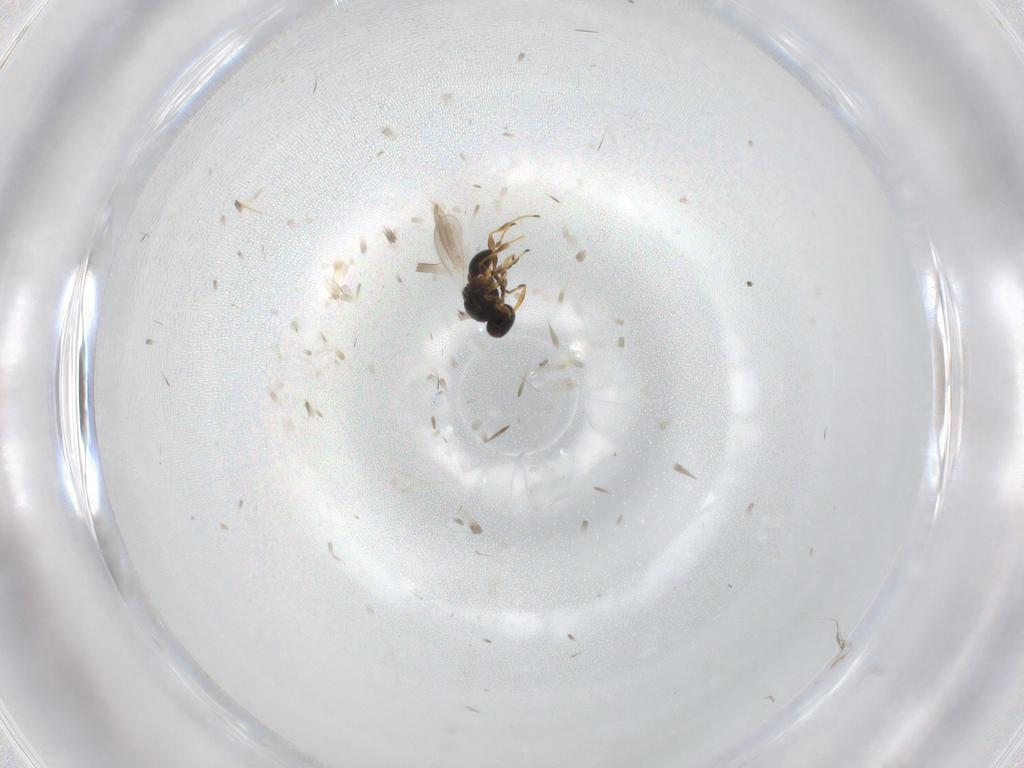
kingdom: Animalia
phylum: Arthropoda
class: Insecta
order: Hymenoptera
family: Platygastridae
